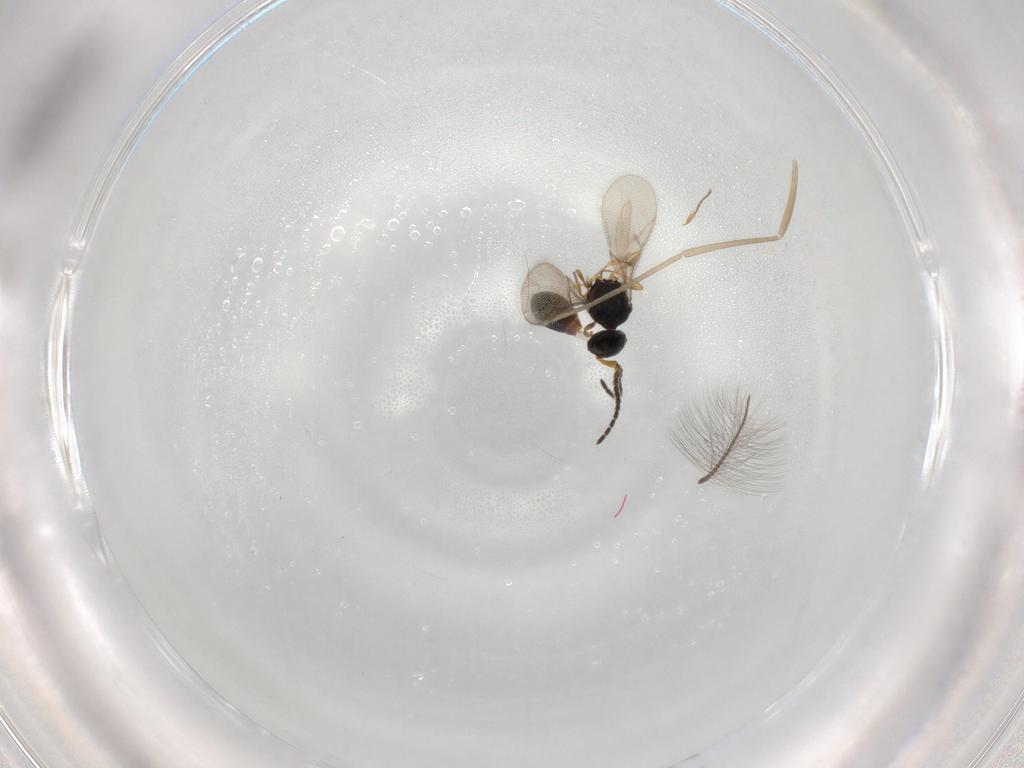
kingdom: Animalia
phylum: Arthropoda
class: Insecta
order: Hymenoptera
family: Scelionidae
